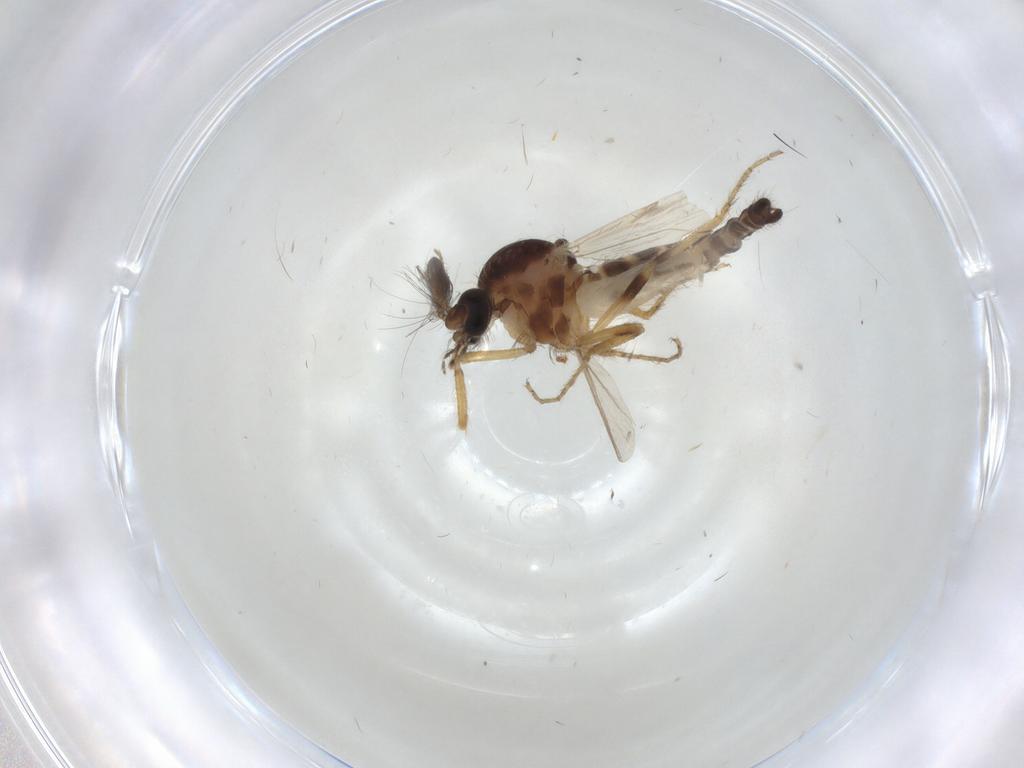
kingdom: Animalia
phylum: Arthropoda
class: Insecta
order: Diptera
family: Ceratopogonidae
